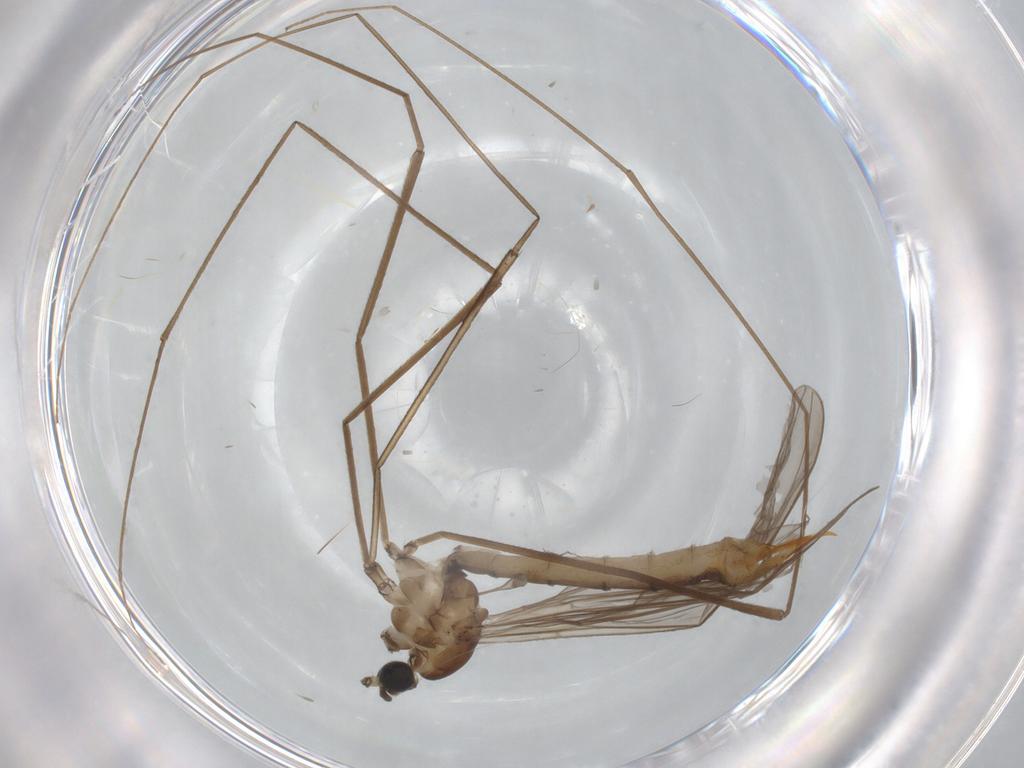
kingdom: Animalia
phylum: Arthropoda
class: Insecta
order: Diptera
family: Limoniidae
